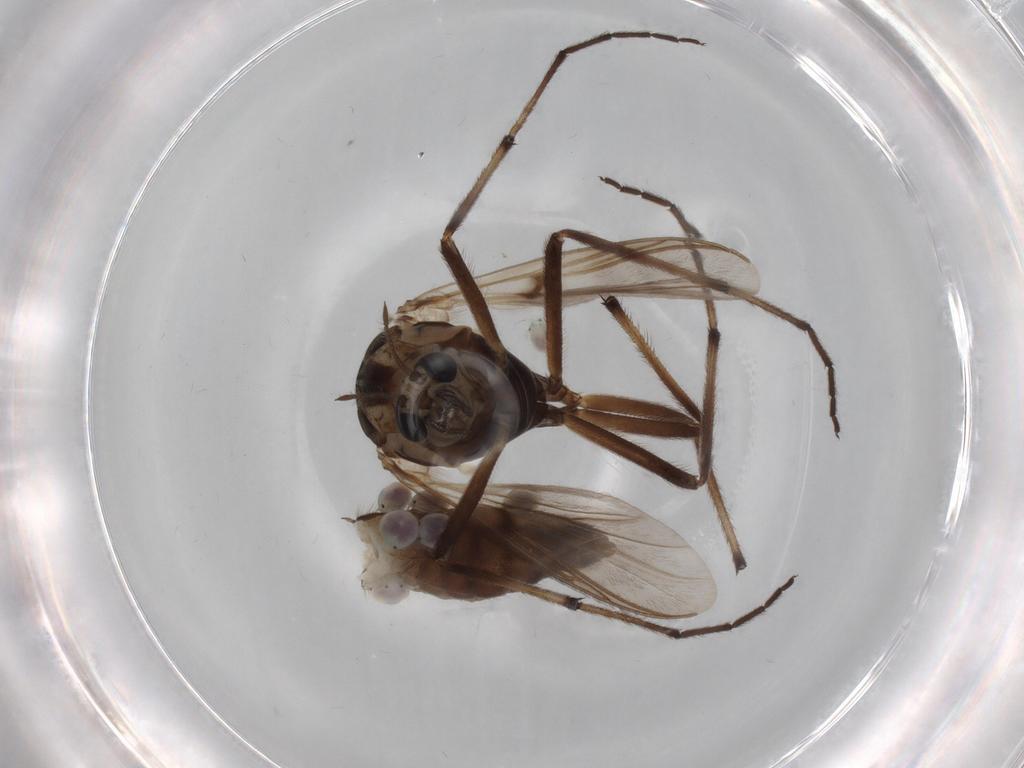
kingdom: Animalia
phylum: Arthropoda
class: Insecta
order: Diptera
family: Chironomidae
